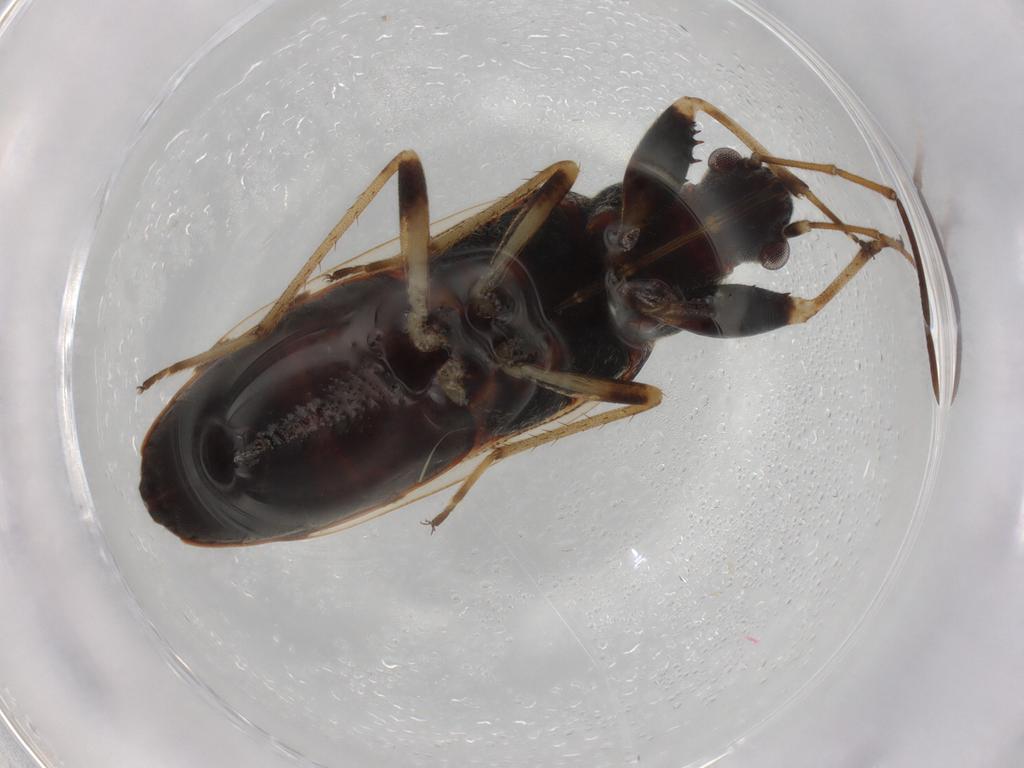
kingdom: Animalia
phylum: Arthropoda
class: Insecta
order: Hemiptera
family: Rhyparochromidae
